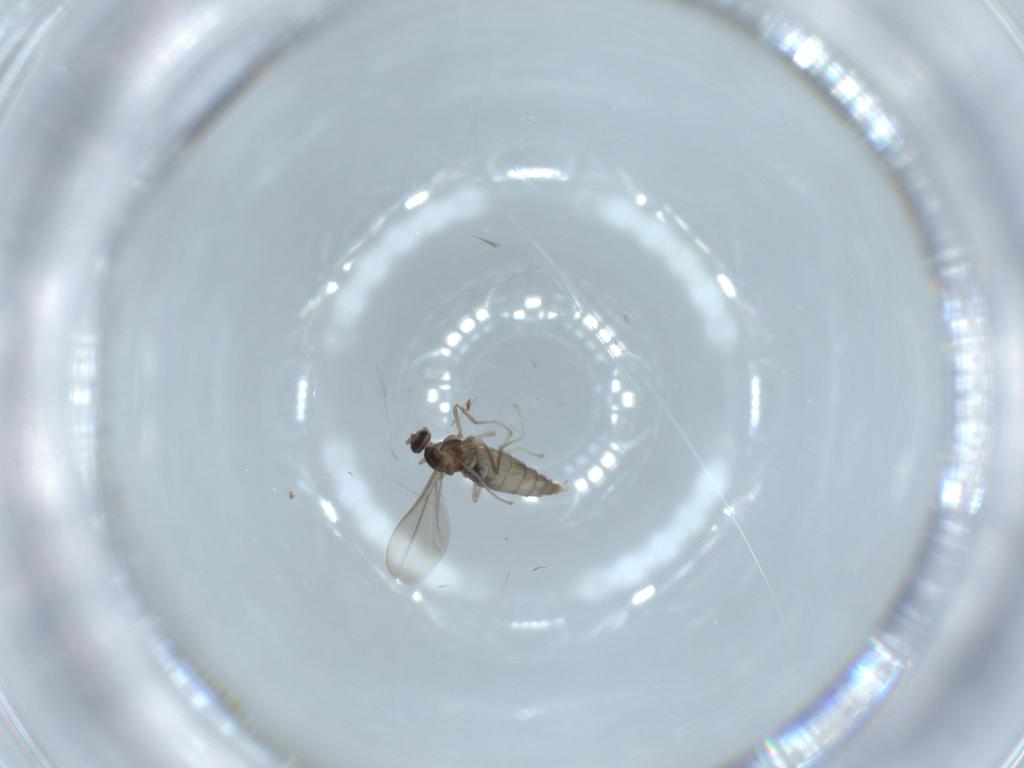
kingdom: Animalia
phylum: Arthropoda
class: Insecta
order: Diptera
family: Cecidomyiidae
